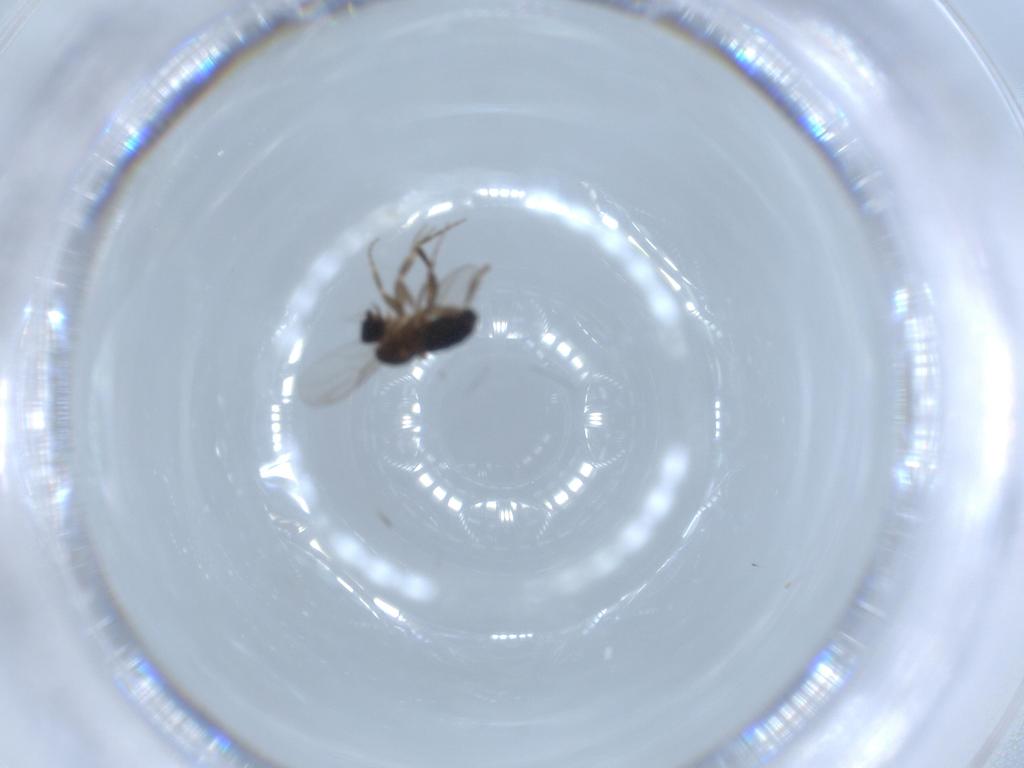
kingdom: Animalia
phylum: Arthropoda
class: Insecta
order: Diptera
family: Phoridae
